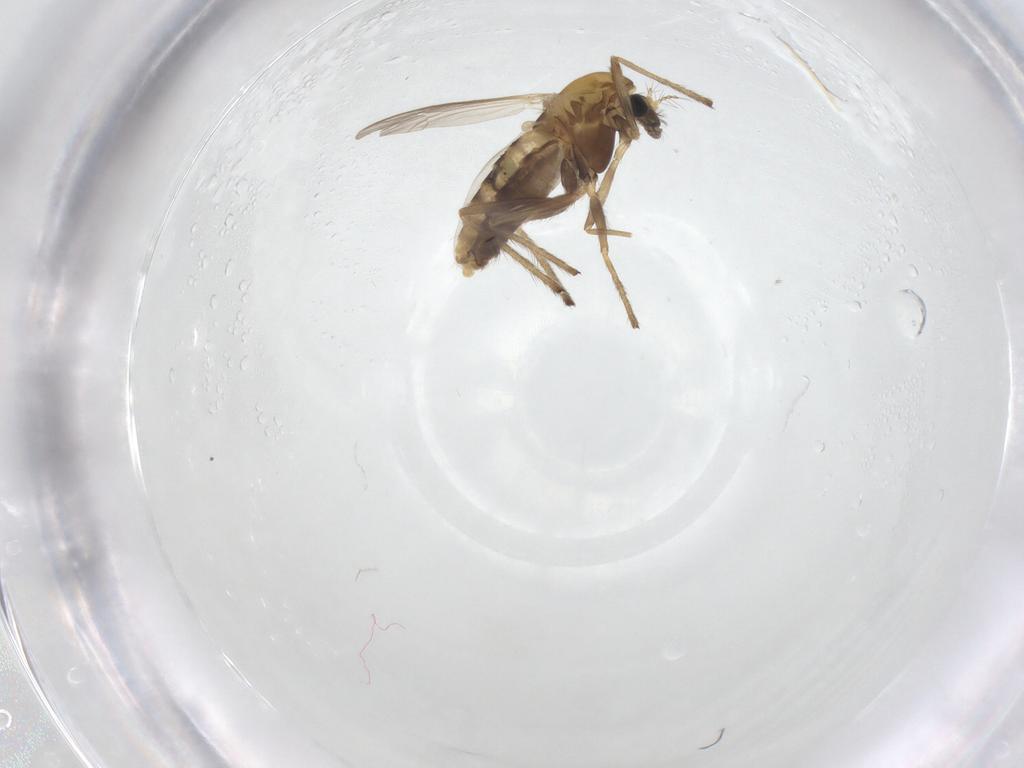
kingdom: Animalia
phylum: Arthropoda
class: Insecta
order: Diptera
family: Chironomidae
